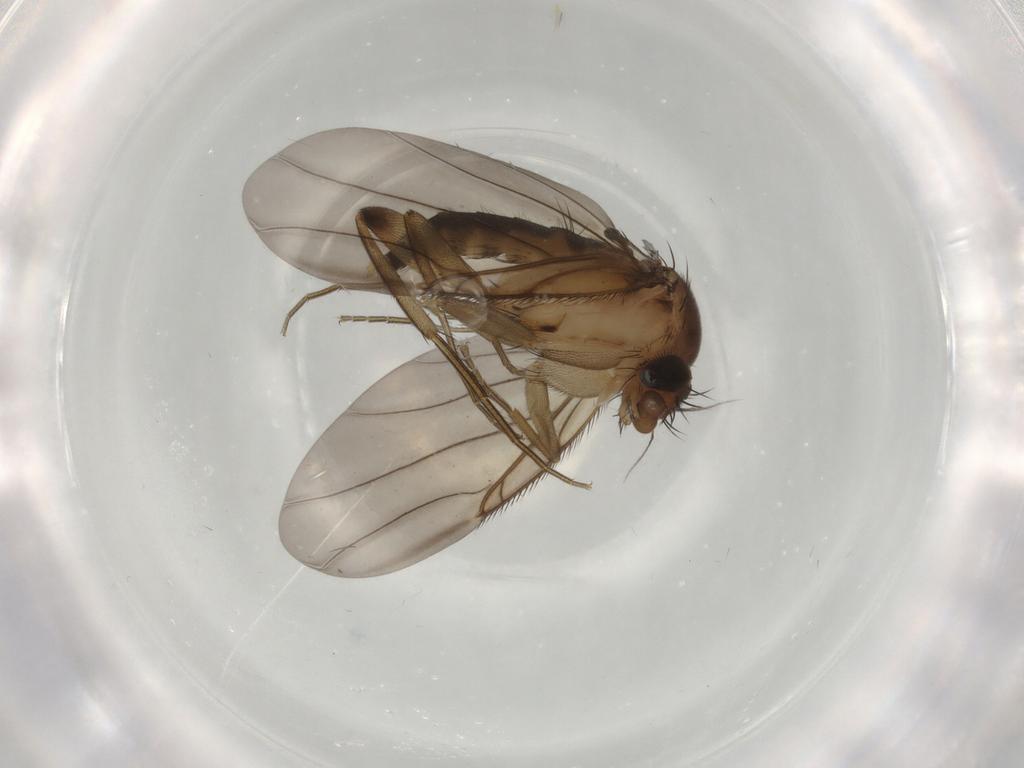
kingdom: Animalia
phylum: Arthropoda
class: Insecta
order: Diptera
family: Phoridae
